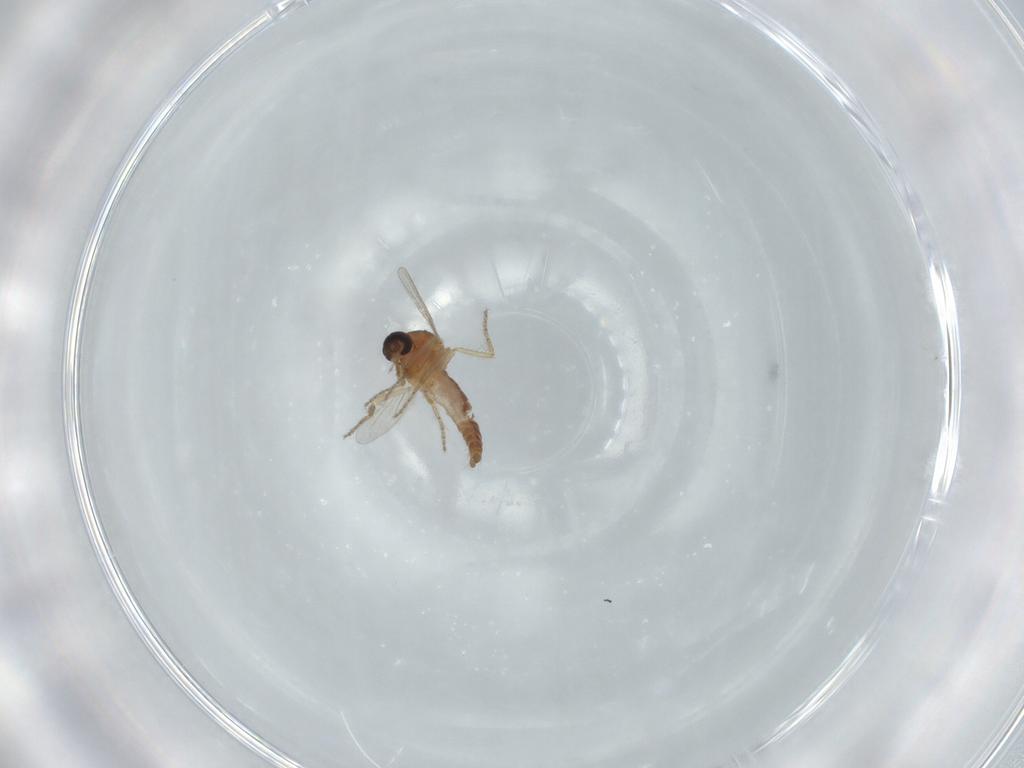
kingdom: Animalia
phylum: Arthropoda
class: Insecta
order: Diptera
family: Ceratopogonidae
